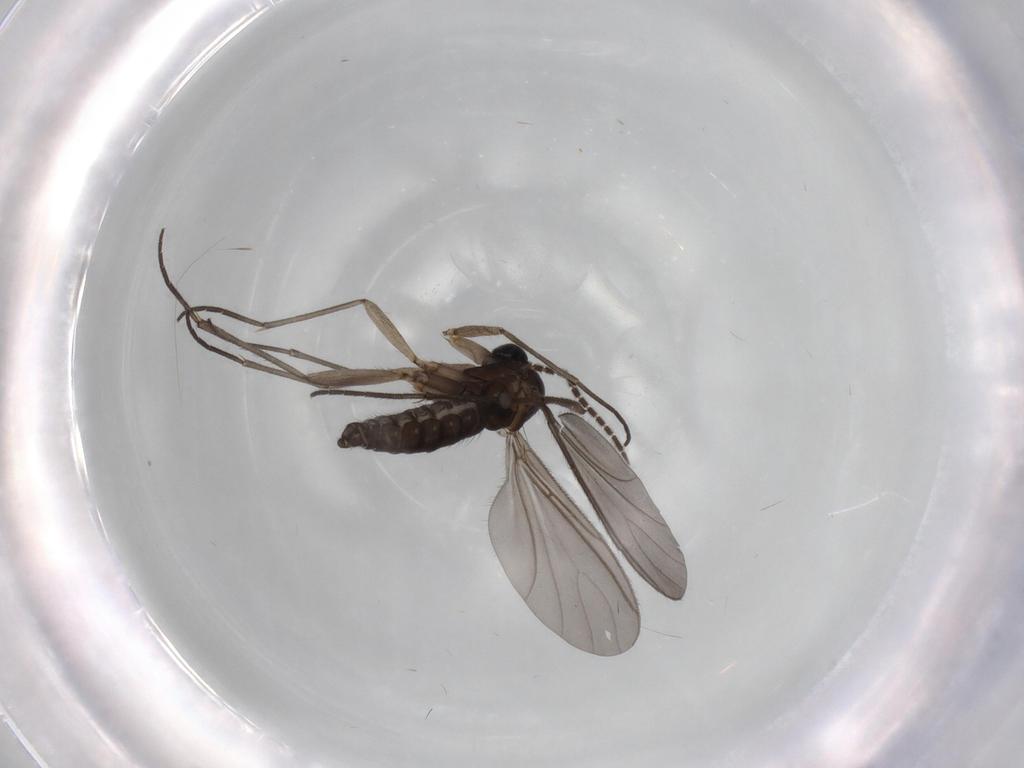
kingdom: Animalia
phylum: Arthropoda
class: Insecta
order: Diptera
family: Sciaridae
